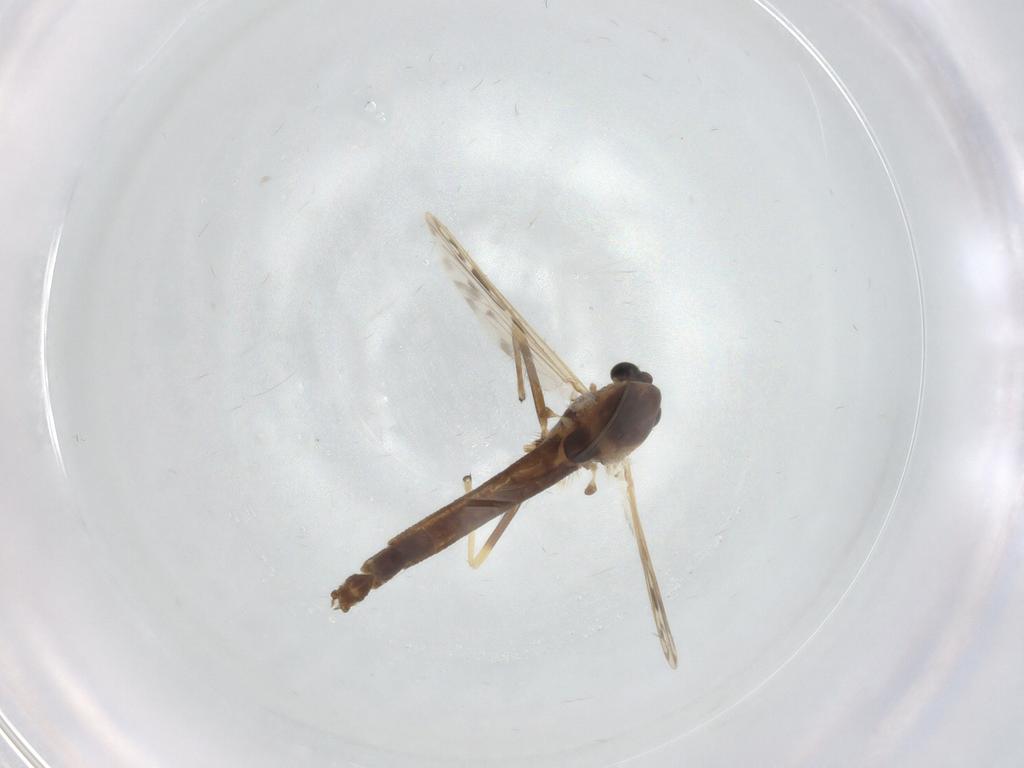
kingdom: Animalia
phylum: Arthropoda
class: Insecta
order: Diptera
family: Chironomidae
